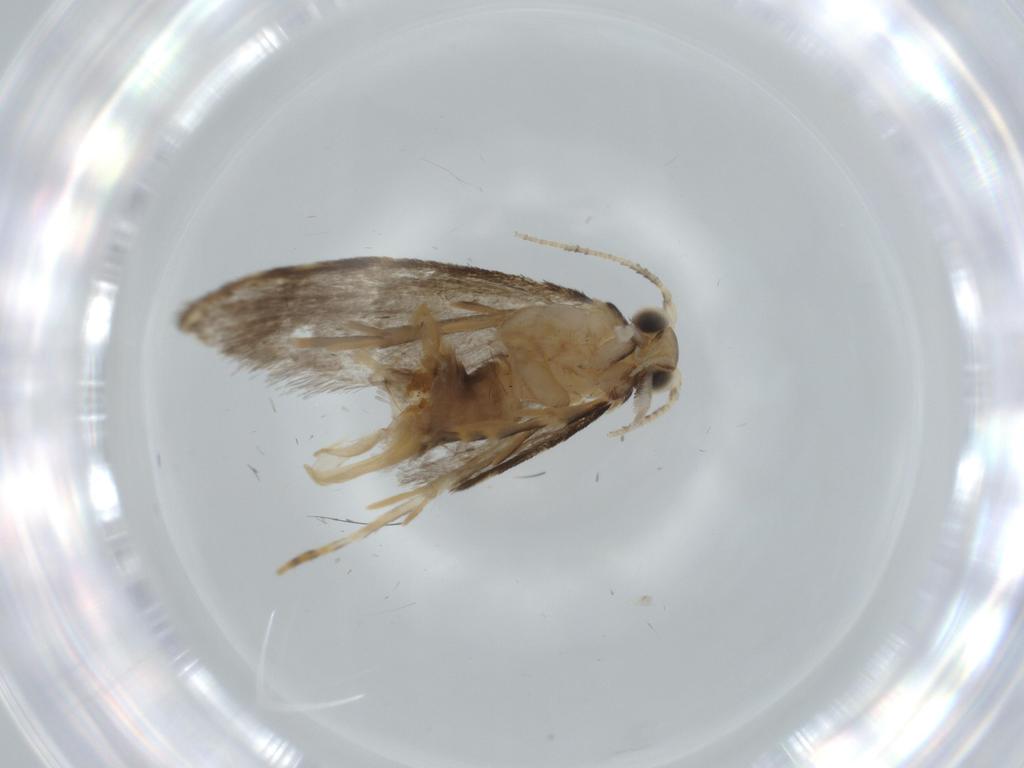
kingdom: Animalia
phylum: Arthropoda
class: Insecta
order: Lepidoptera
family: Tineidae
